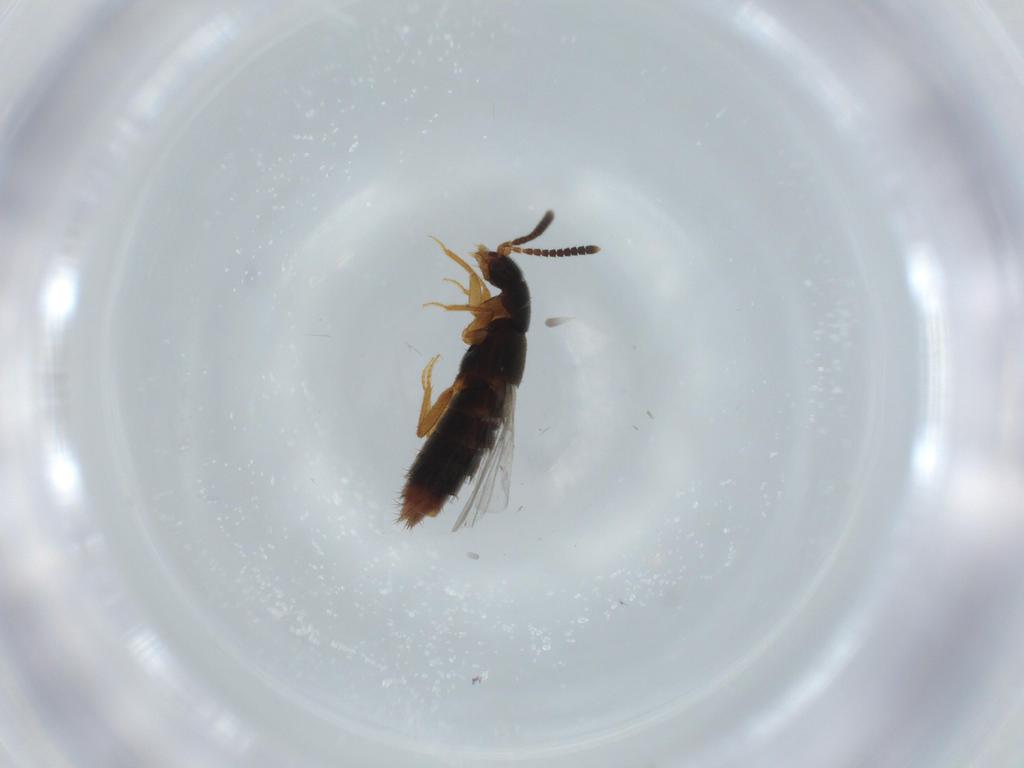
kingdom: Animalia
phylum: Arthropoda
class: Insecta
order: Coleoptera
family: Staphylinidae
